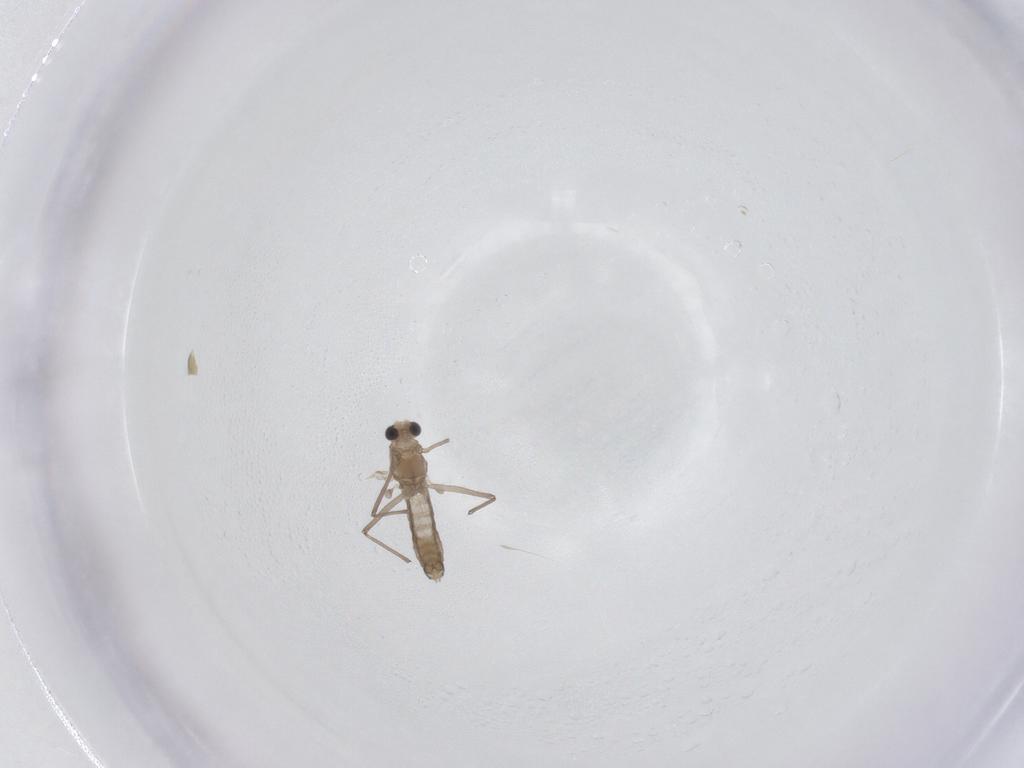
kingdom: Animalia
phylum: Arthropoda
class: Insecta
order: Diptera
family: Chironomidae
